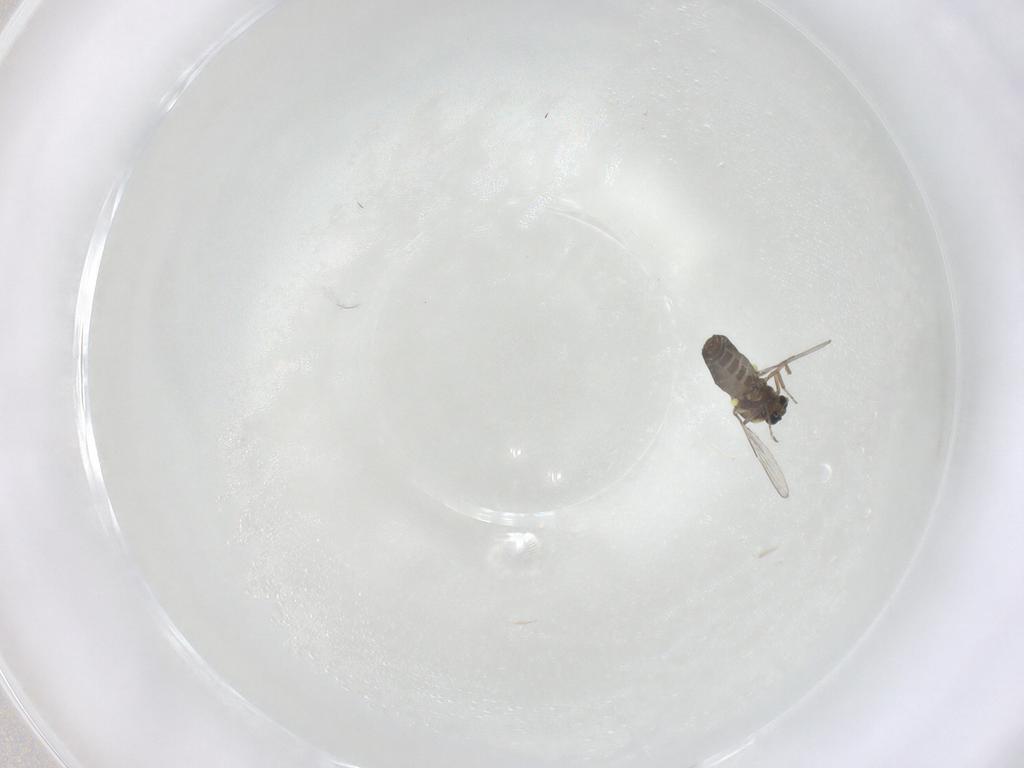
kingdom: Animalia
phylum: Arthropoda
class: Insecta
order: Diptera
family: Ceratopogonidae
